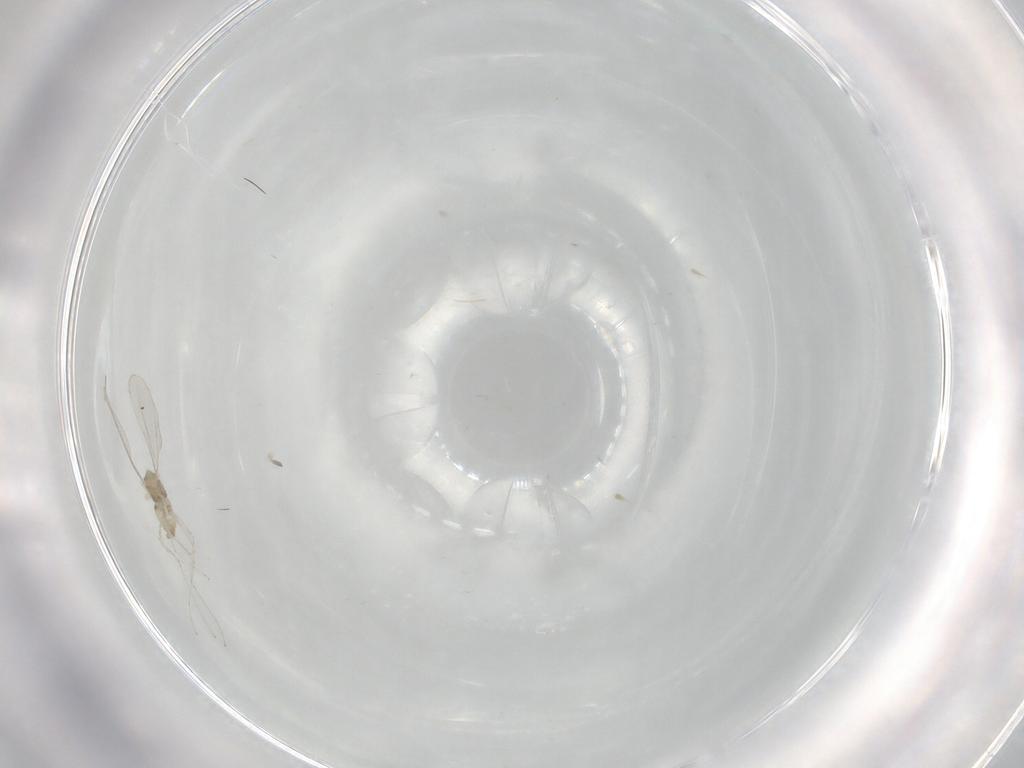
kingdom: Animalia
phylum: Arthropoda
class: Insecta
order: Diptera
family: Cecidomyiidae
